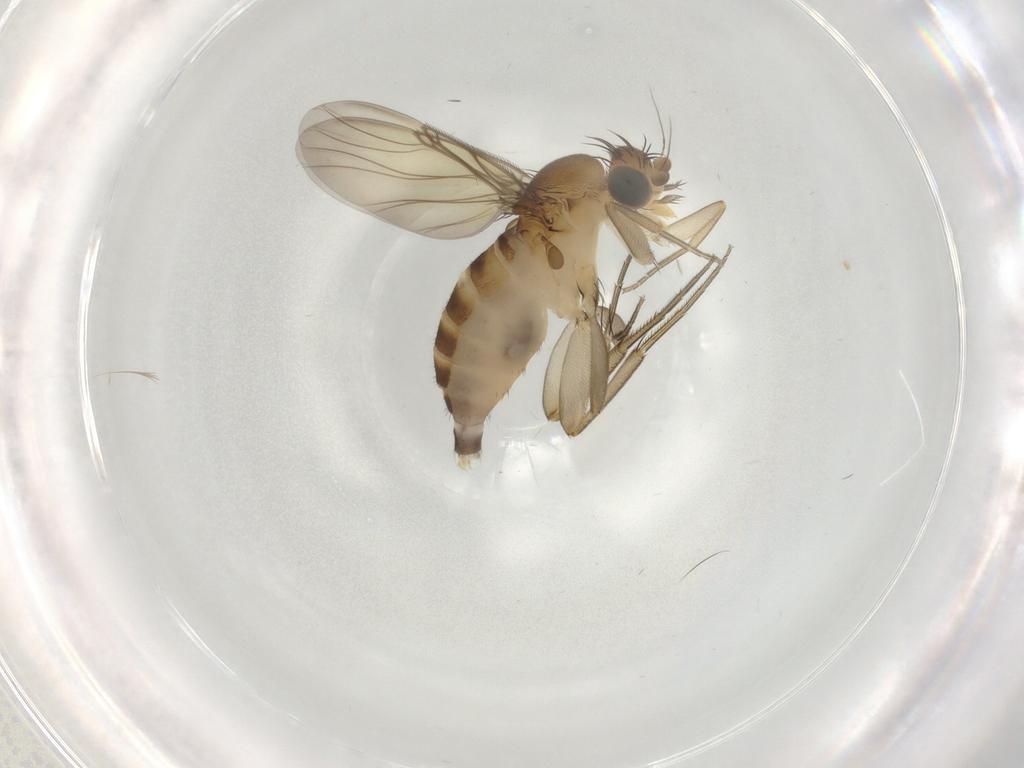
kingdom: Animalia
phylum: Arthropoda
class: Insecta
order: Diptera
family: Phoridae
